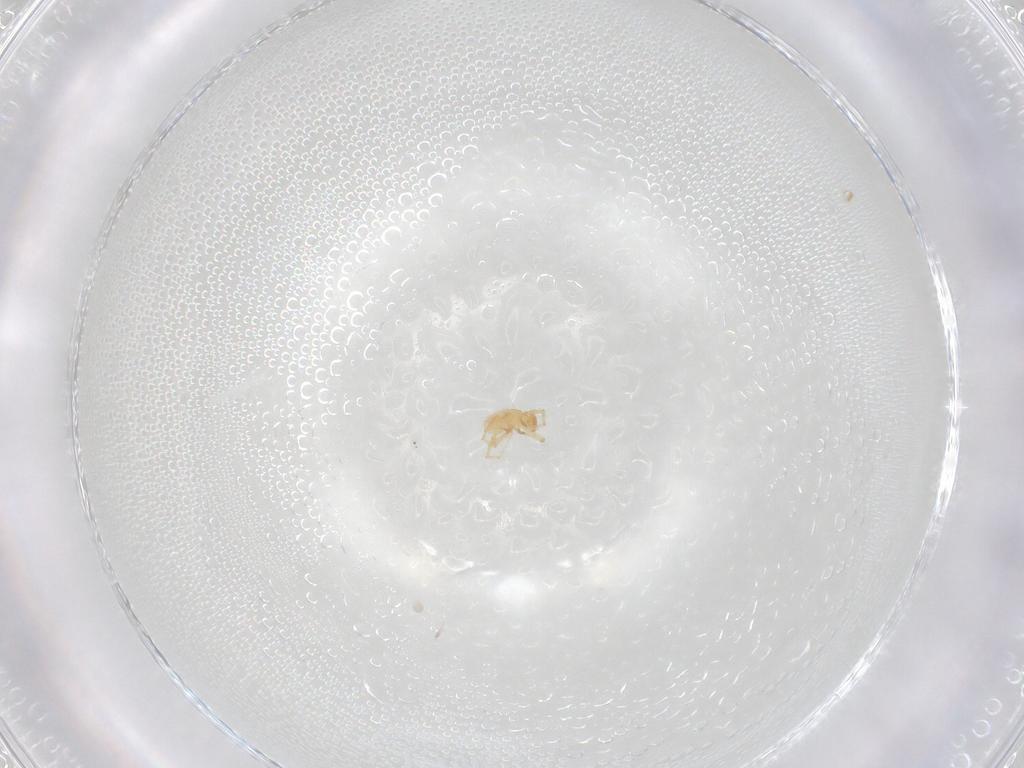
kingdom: Animalia
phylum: Arthropoda
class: Arachnida
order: Trombidiformes
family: Erythraeidae
